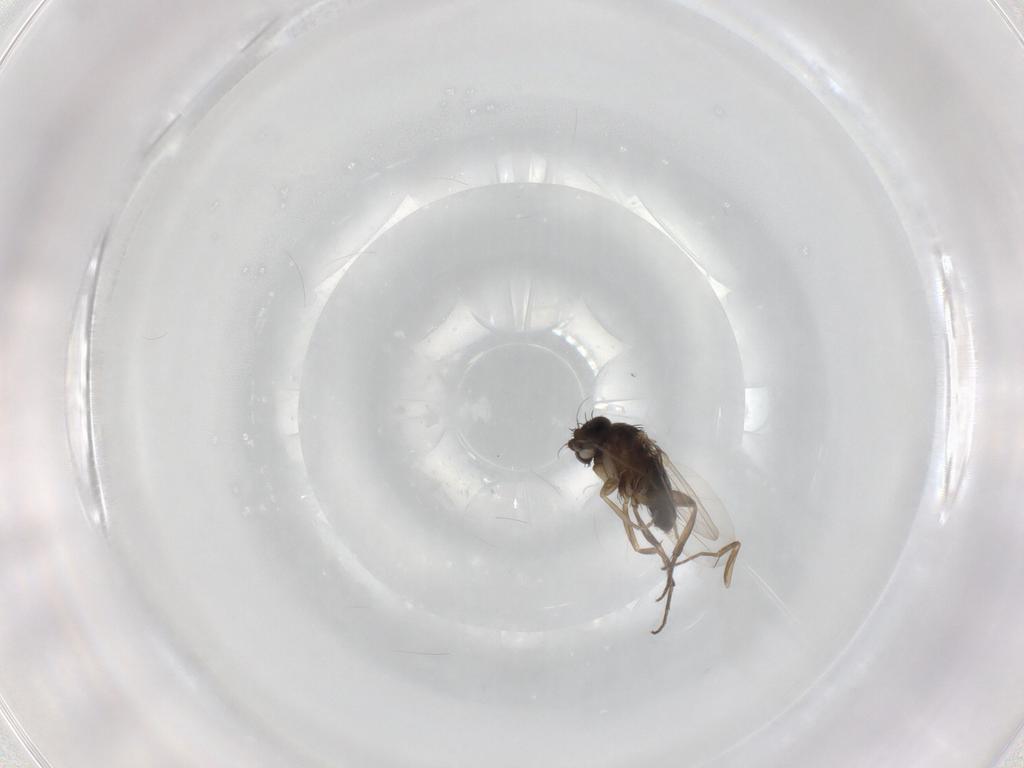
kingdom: Animalia
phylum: Arthropoda
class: Insecta
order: Diptera
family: Phoridae
